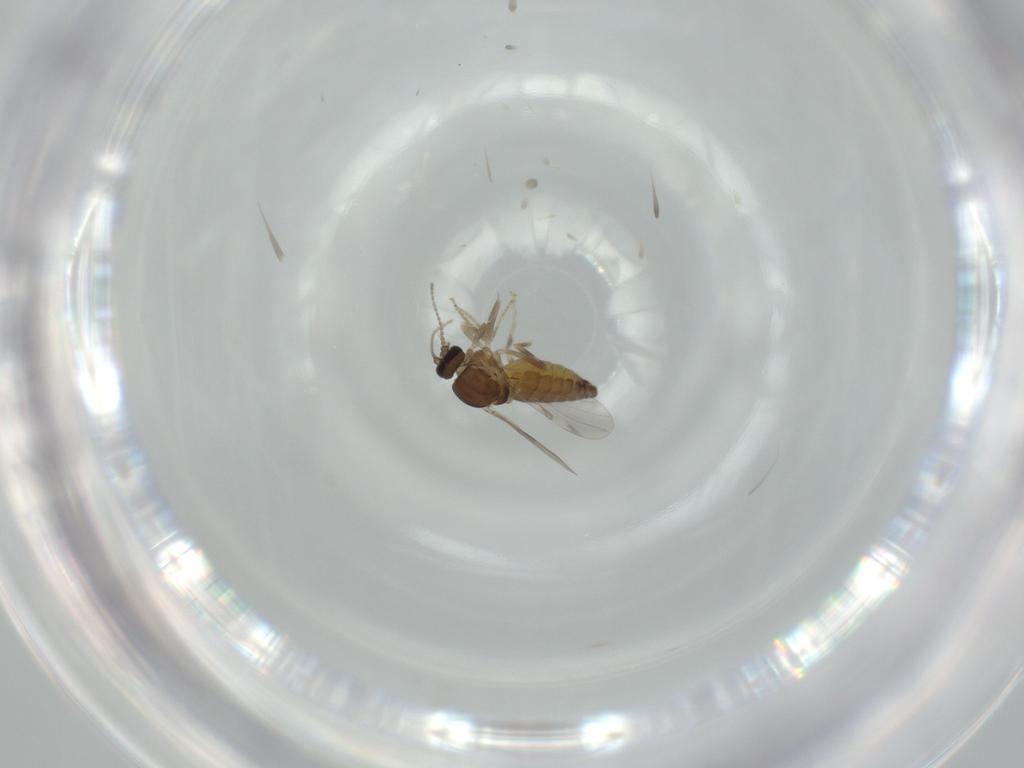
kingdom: Animalia
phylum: Arthropoda
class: Insecta
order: Diptera
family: Ceratopogonidae
